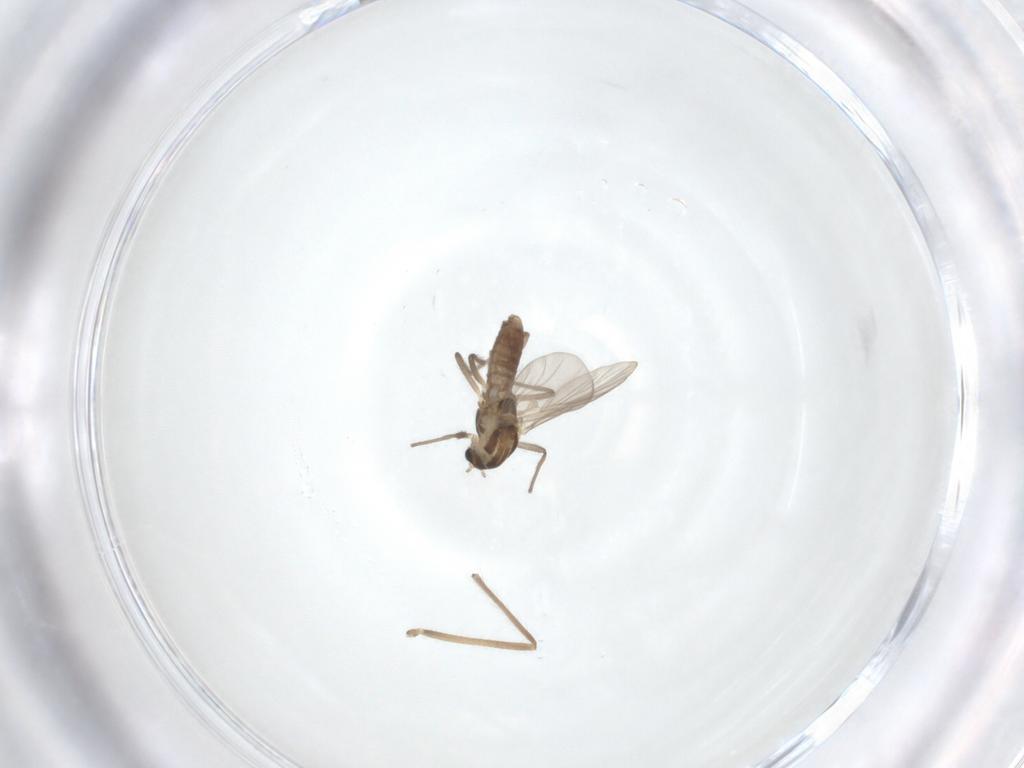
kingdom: Animalia
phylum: Arthropoda
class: Insecta
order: Diptera
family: Chironomidae
